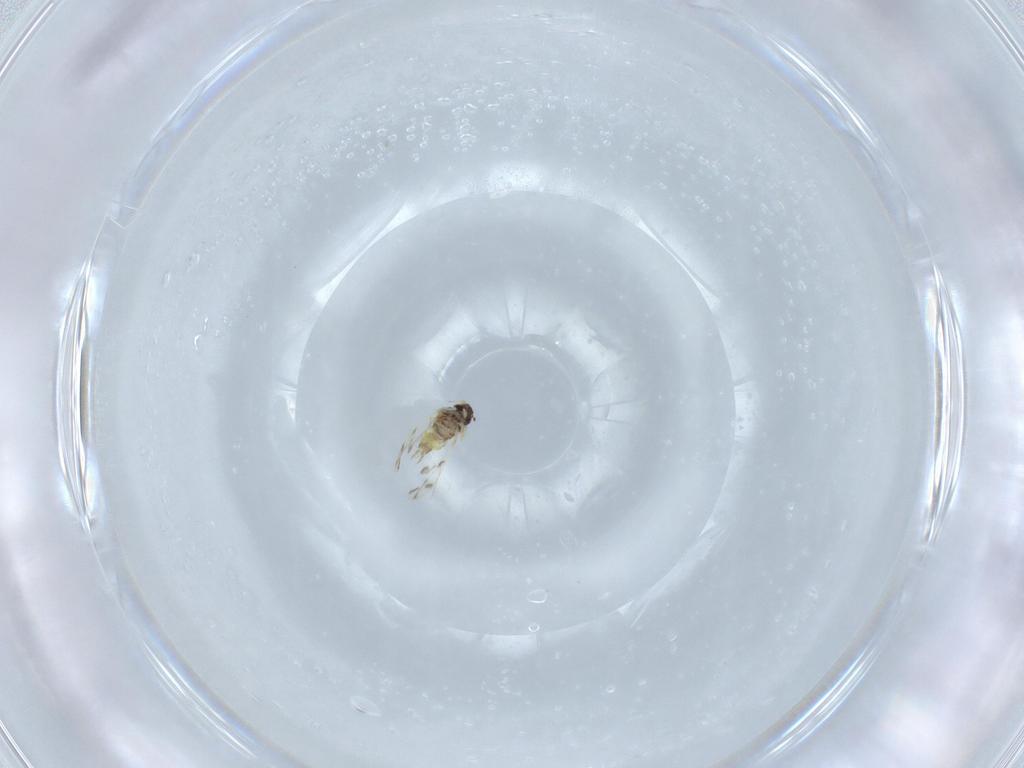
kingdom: Animalia
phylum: Arthropoda
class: Insecta
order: Hemiptera
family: Aleyrodidae
